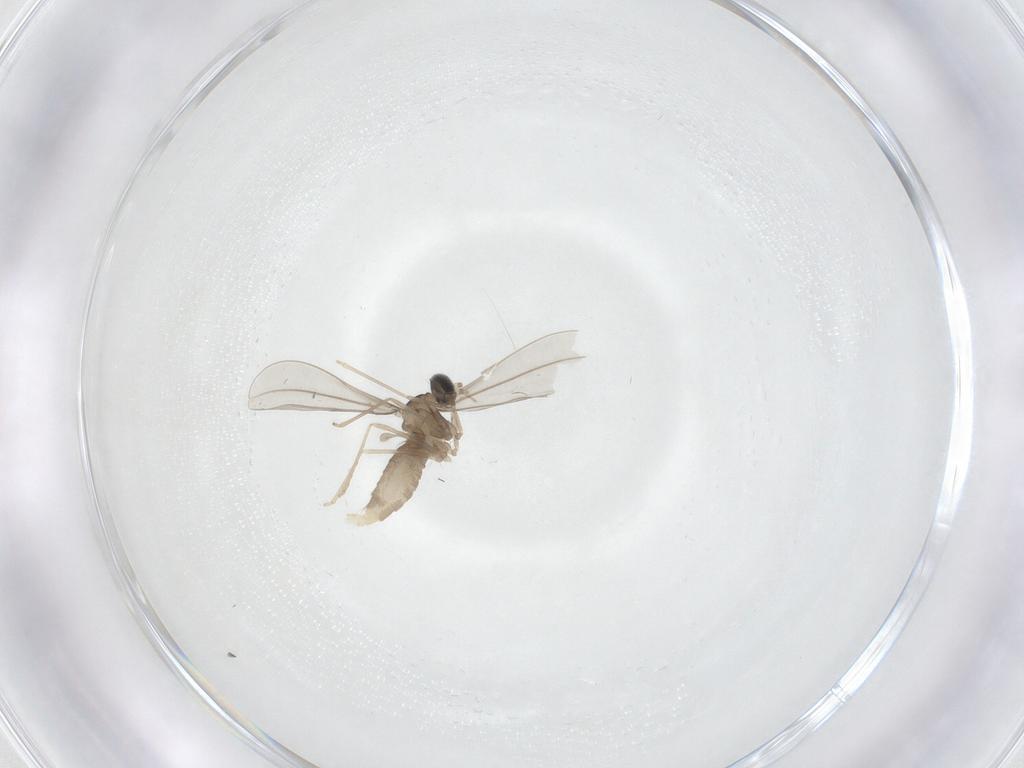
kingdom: Animalia
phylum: Arthropoda
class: Insecta
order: Diptera
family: Cecidomyiidae
